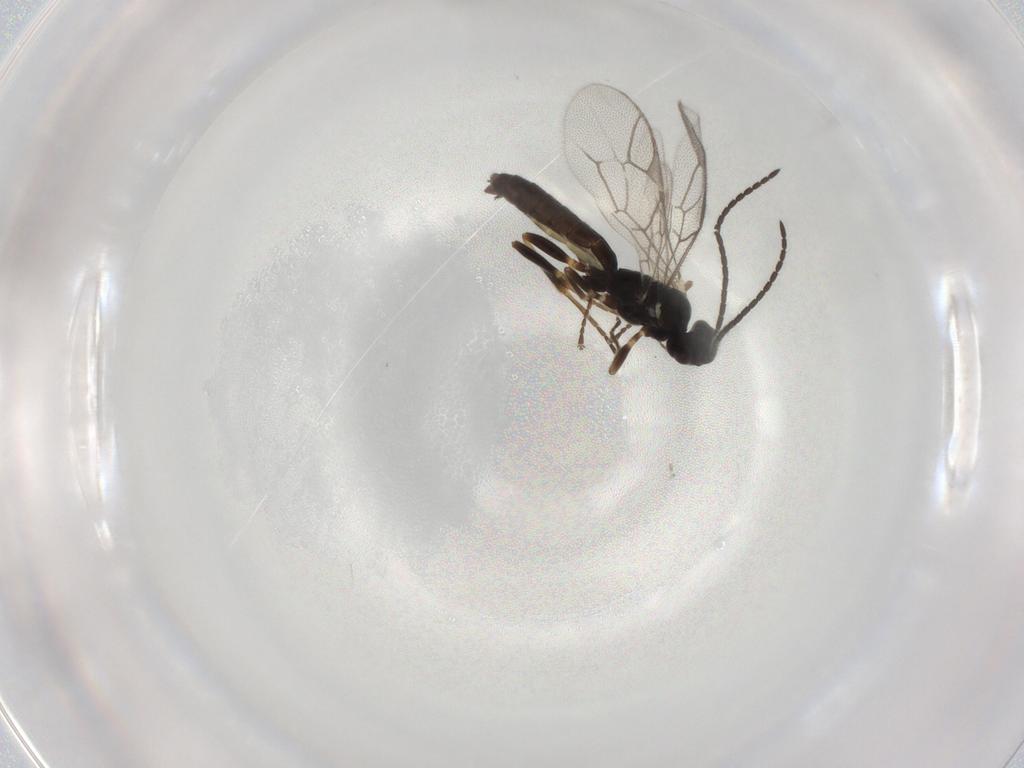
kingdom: Animalia
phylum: Arthropoda
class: Insecta
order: Hymenoptera
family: Ichneumonidae
